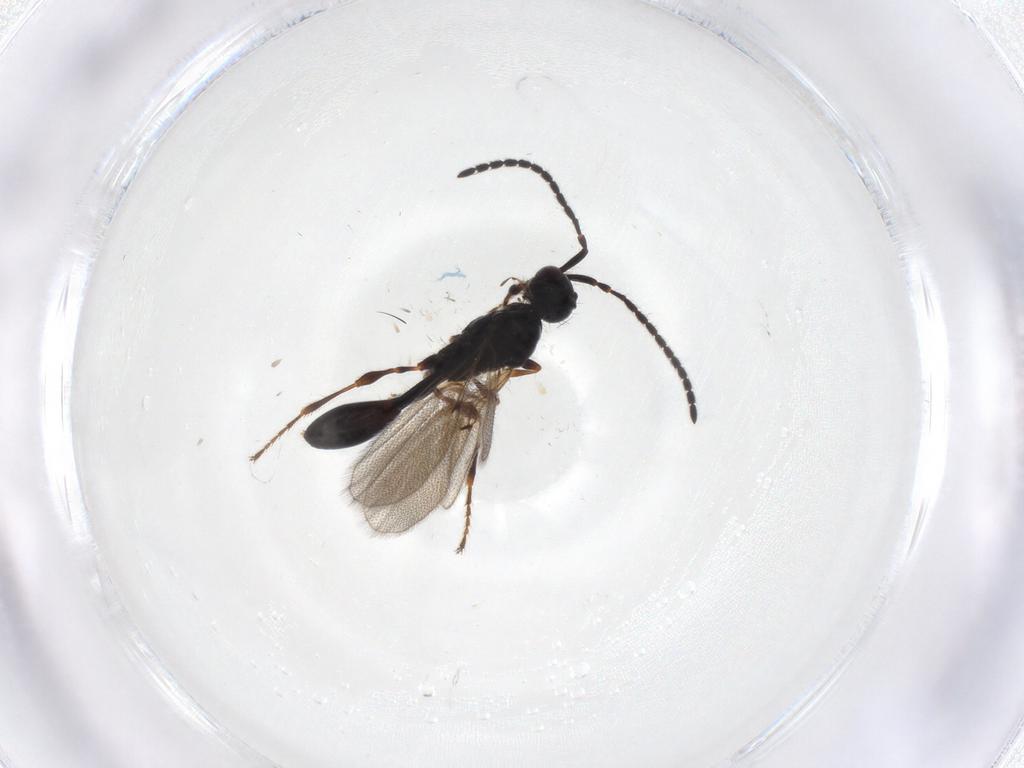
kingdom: Animalia
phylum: Arthropoda
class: Insecta
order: Hymenoptera
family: Diapriidae
